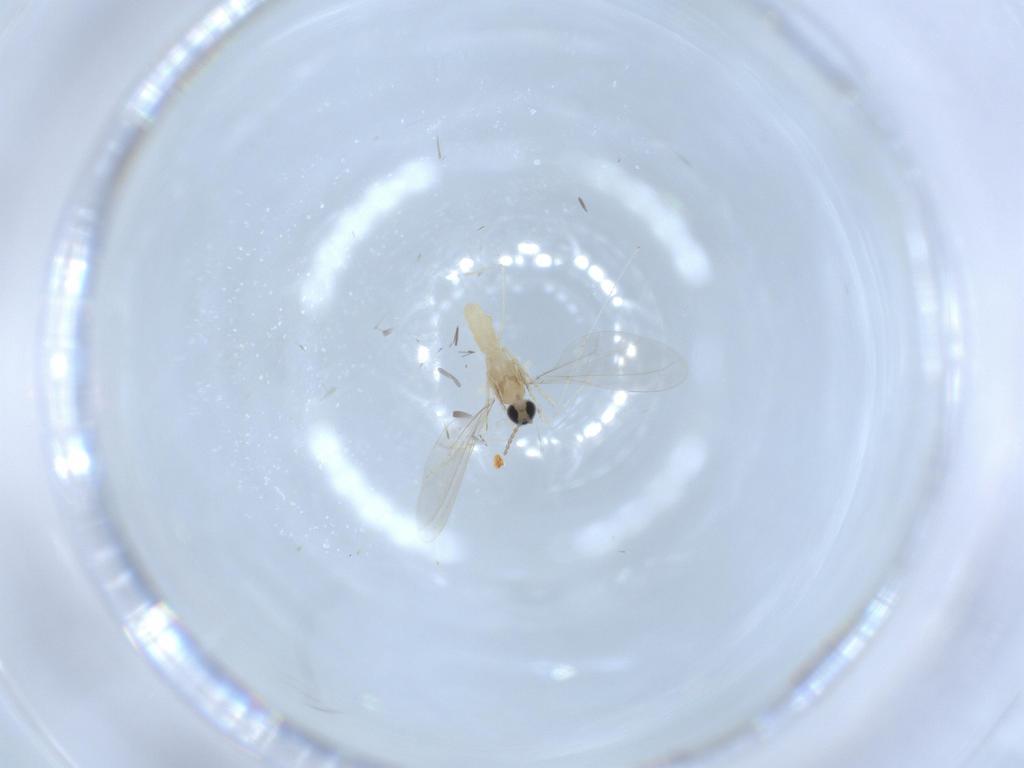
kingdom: Animalia
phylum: Arthropoda
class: Insecta
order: Diptera
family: Cecidomyiidae
